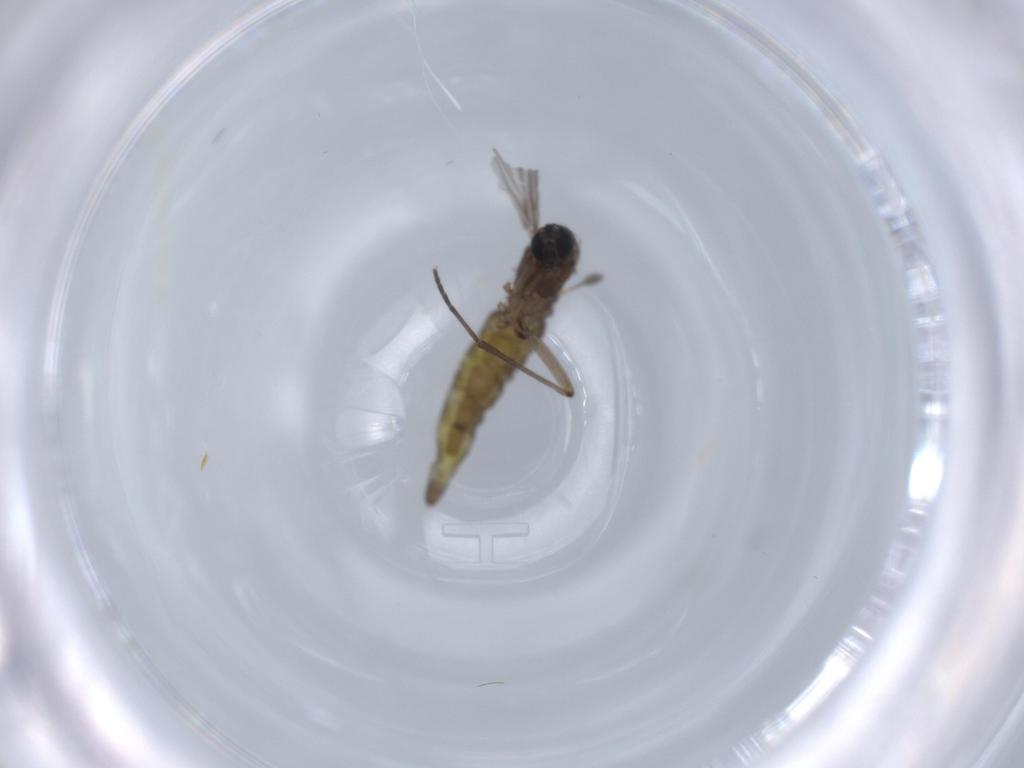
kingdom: Animalia
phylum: Arthropoda
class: Insecta
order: Diptera
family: Sciaridae
